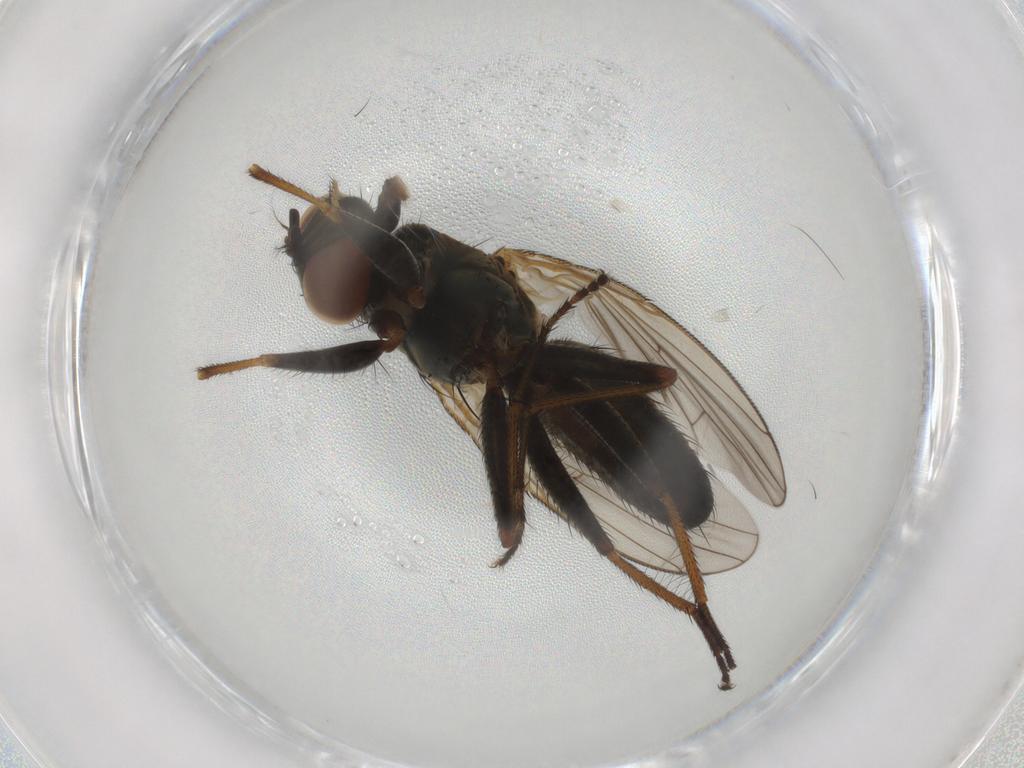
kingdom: Animalia
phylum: Arthropoda
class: Insecta
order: Diptera
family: Muscidae
